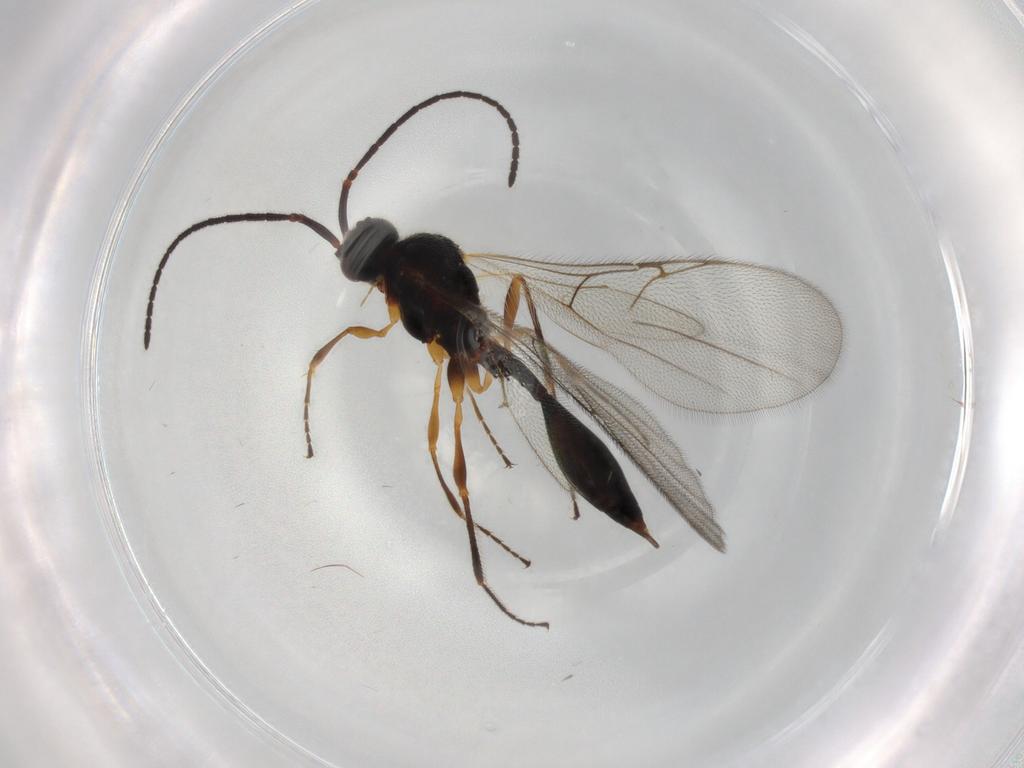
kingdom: Animalia
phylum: Arthropoda
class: Insecta
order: Hymenoptera
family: Diapriidae
